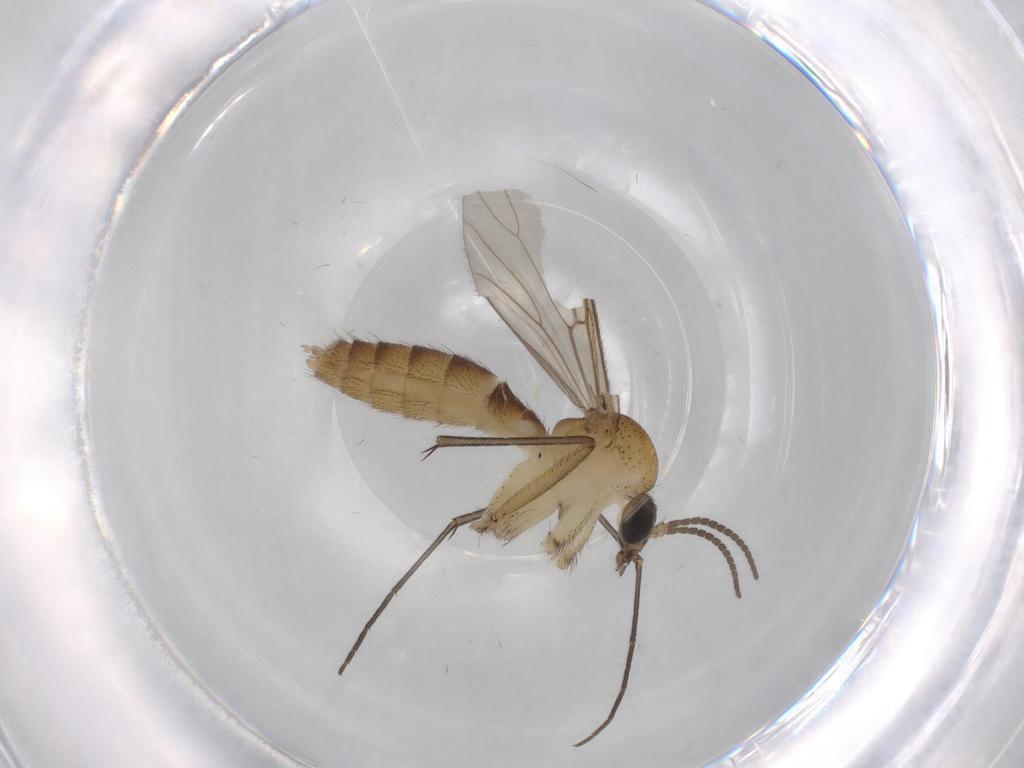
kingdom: Animalia
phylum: Arthropoda
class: Insecta
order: Diptera
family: Mycetophilidae
